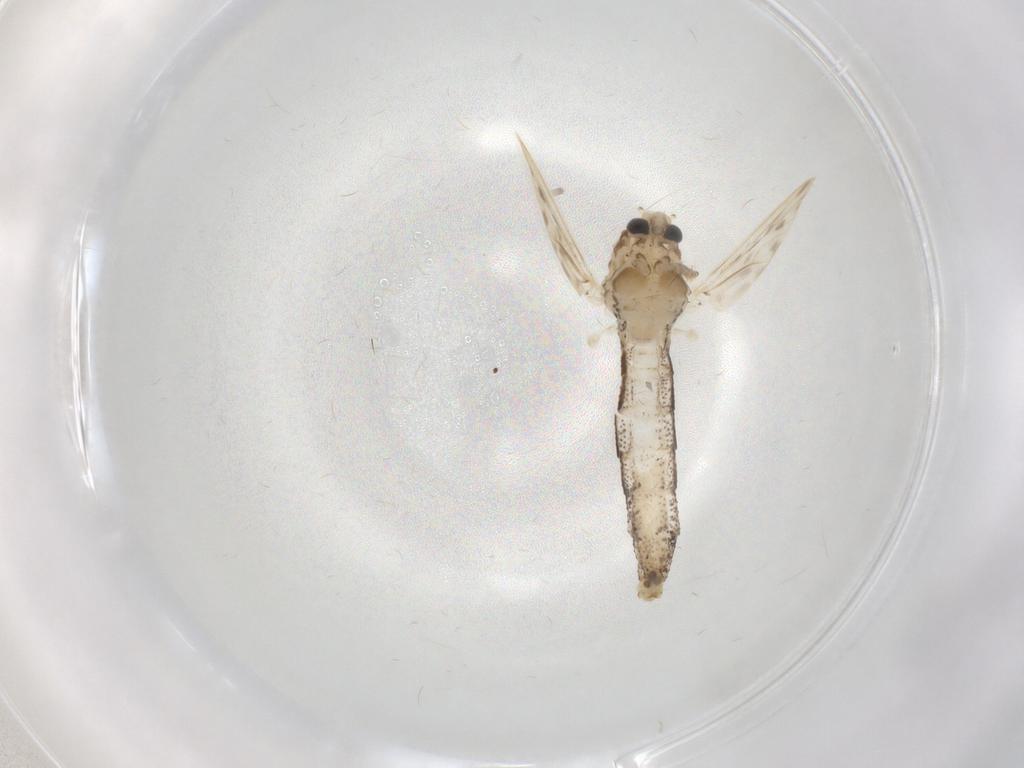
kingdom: Animalia
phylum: Arthropoda
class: Insecta
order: Diptera
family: Chaoboridae
